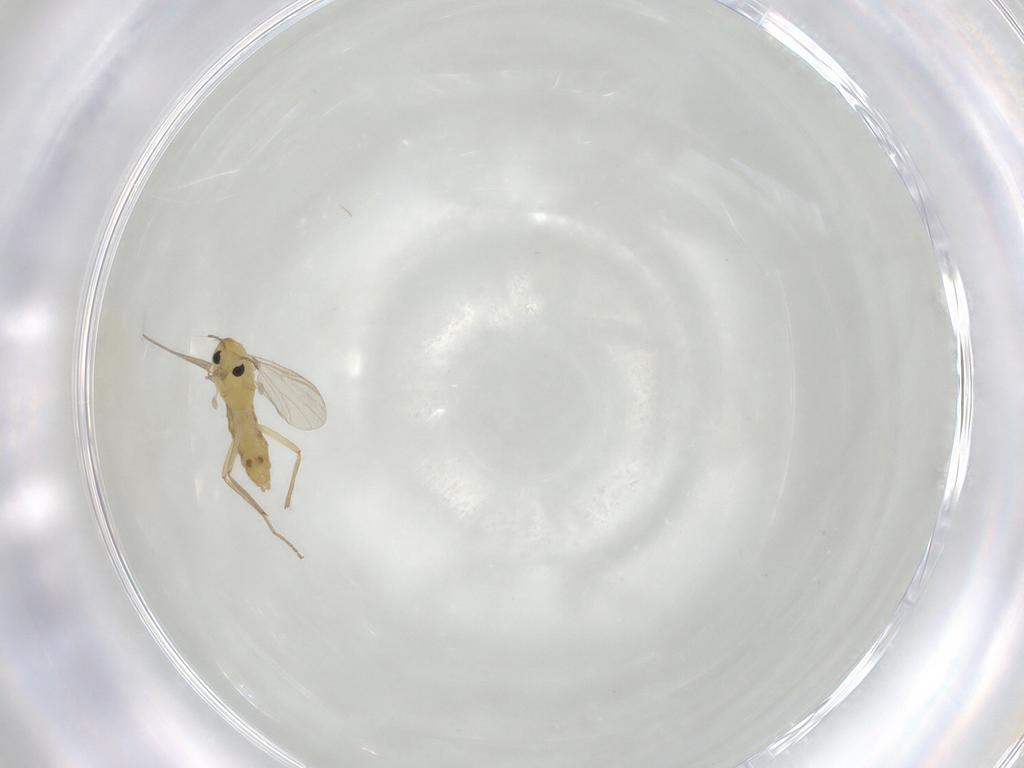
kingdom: Animalia
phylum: Arthropoda
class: Insecta
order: Diptera
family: Chironomidae
